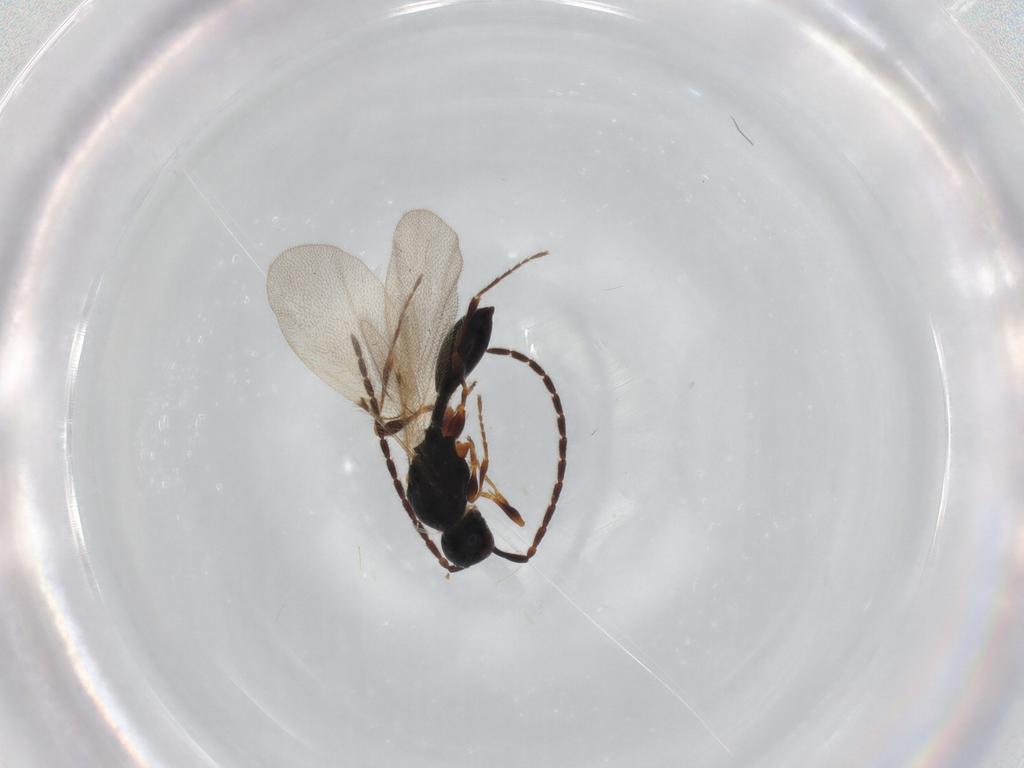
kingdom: Animalia
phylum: Arthropoda
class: Insecta
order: Hymenoptera
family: Diapriidae
